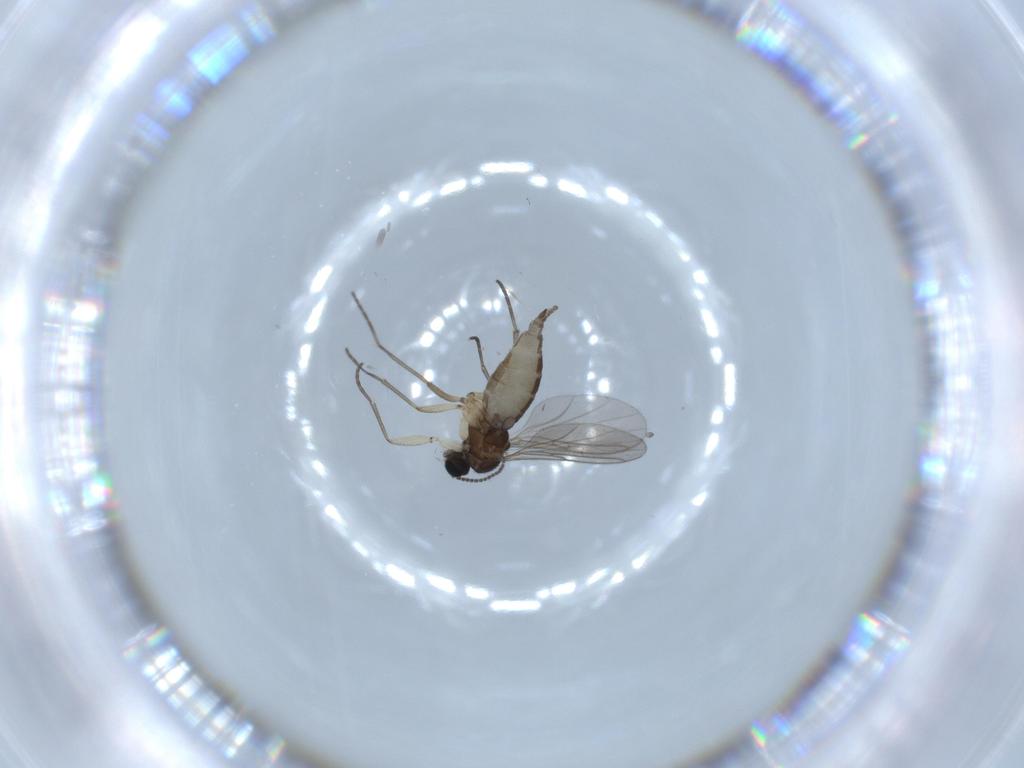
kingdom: Animalia
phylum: Arthropoda
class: Insecta
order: Diptera
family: Sciaridae
